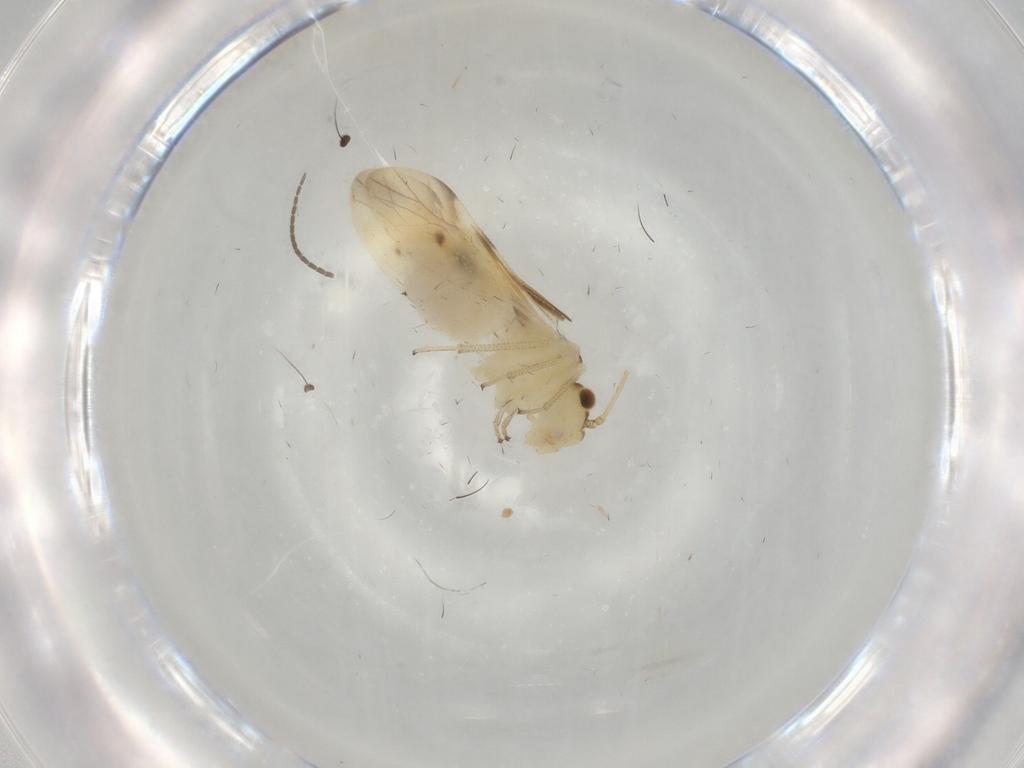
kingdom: Animalia
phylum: Arthropoda
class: Insecta
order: Psocodea
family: Caeciliusidae
